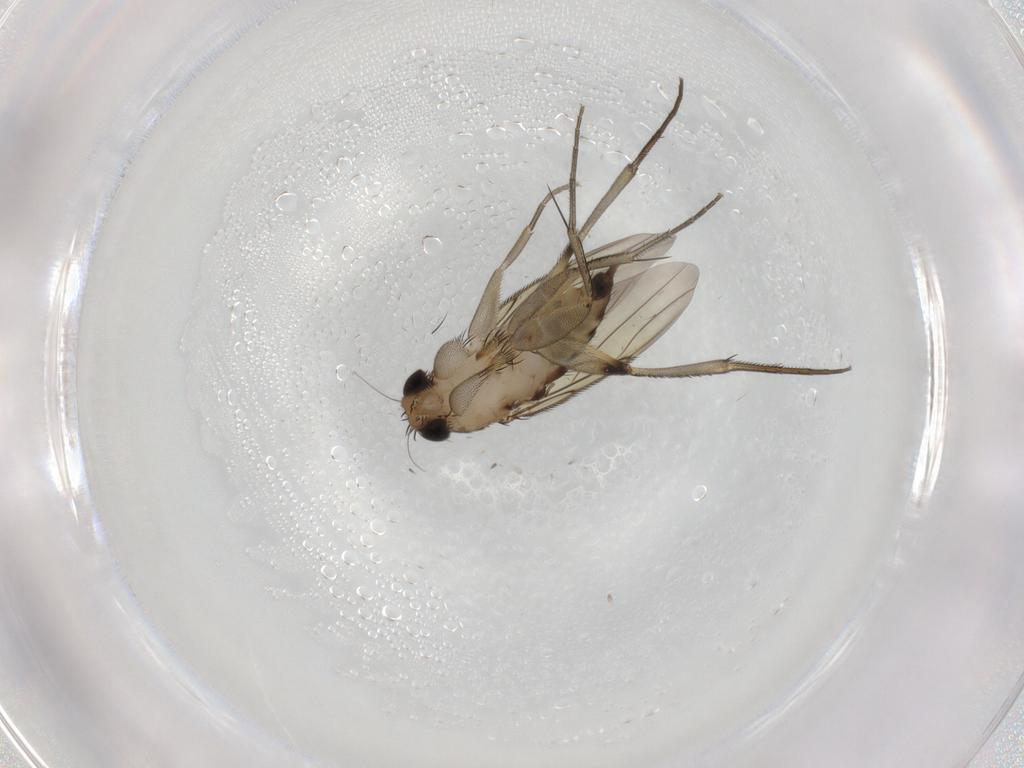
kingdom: Animalia
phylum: Arthropoda
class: Insecta
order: Diptera
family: Phoridae
